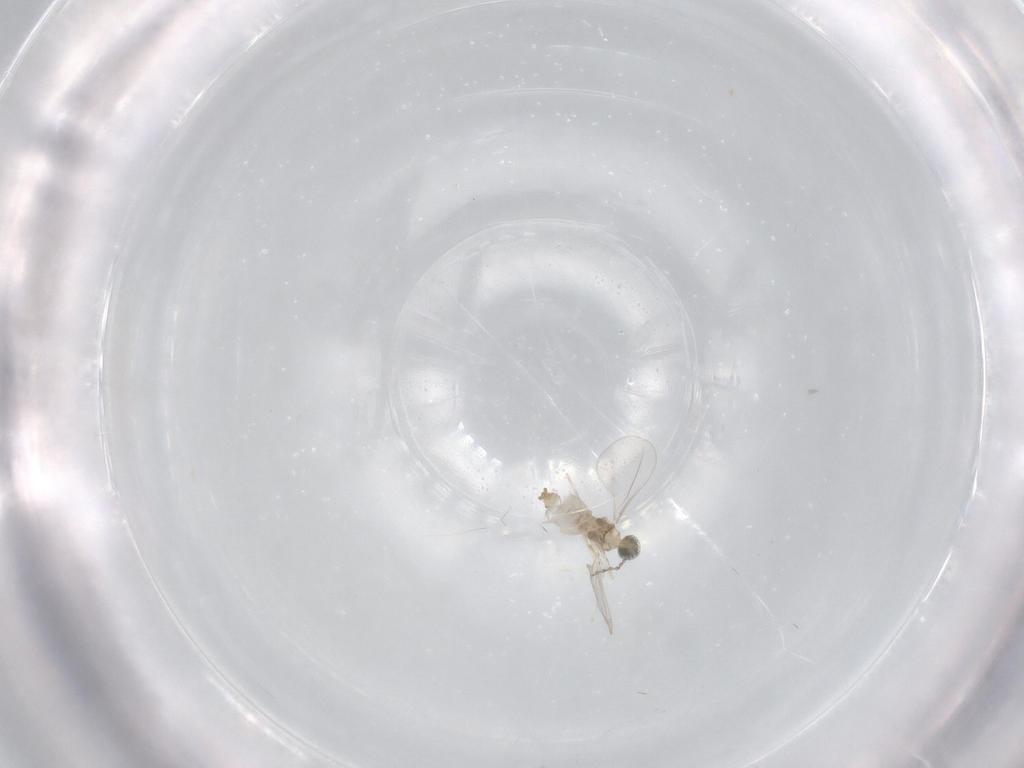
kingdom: Animalia
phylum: Arthropoda
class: Insecta
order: Diptera
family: Cecidomyiidae
